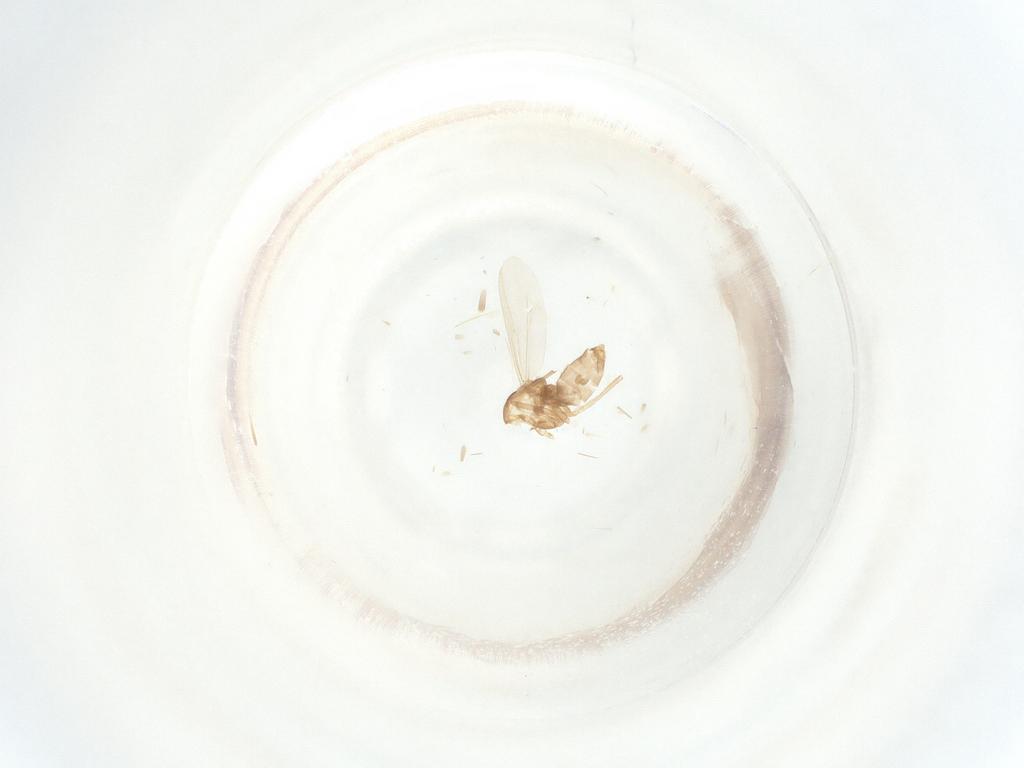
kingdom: Animalia
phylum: Arthropoda
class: Insecta
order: Diptera
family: Chironomidae
